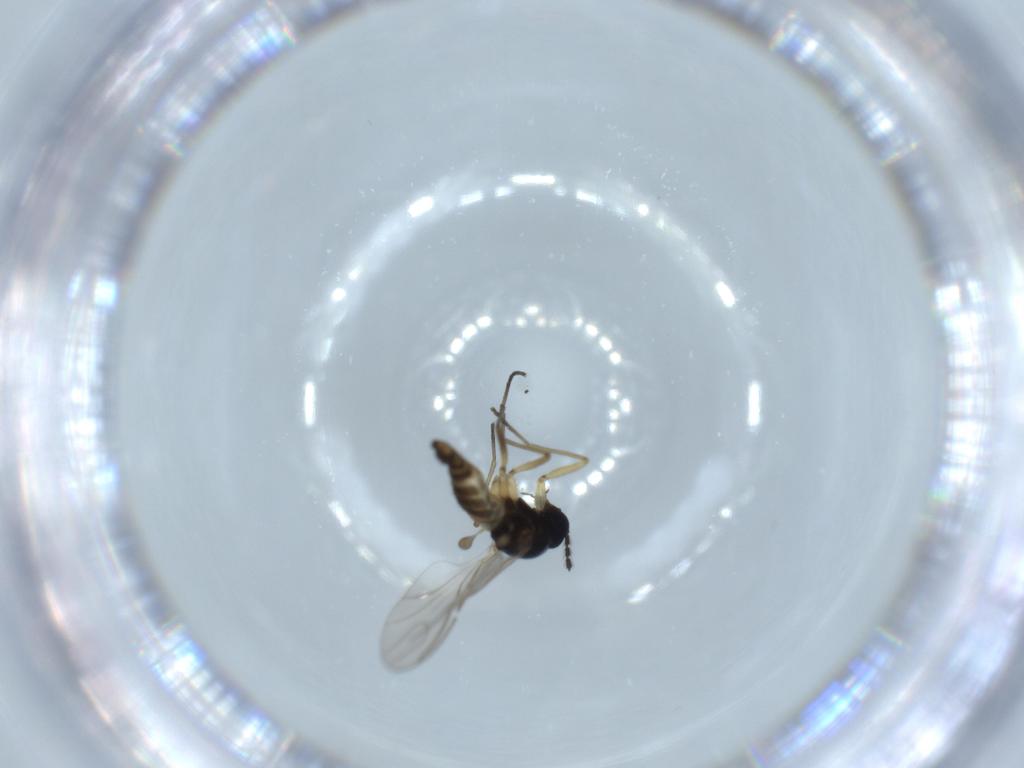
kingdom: Animalia
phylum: Arthropoda
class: Insecta
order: Diptera
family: Sciaridae
